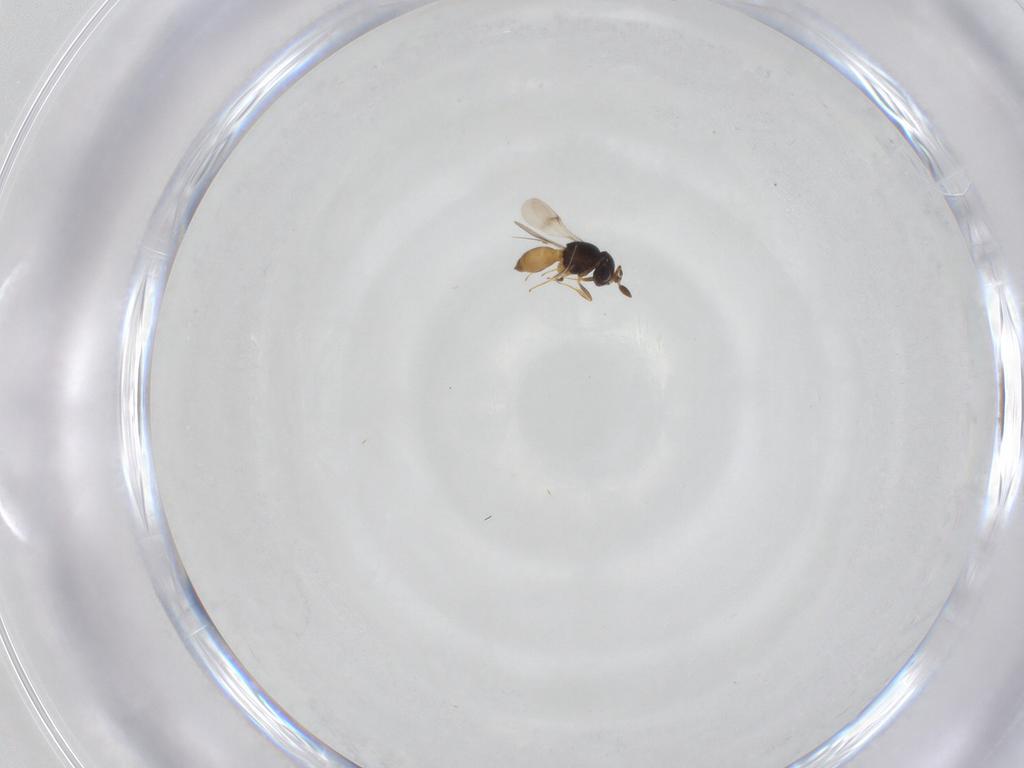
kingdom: Animalia
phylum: Arthropoda
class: Insecta
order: Hymenoptera
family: Scelionidae
